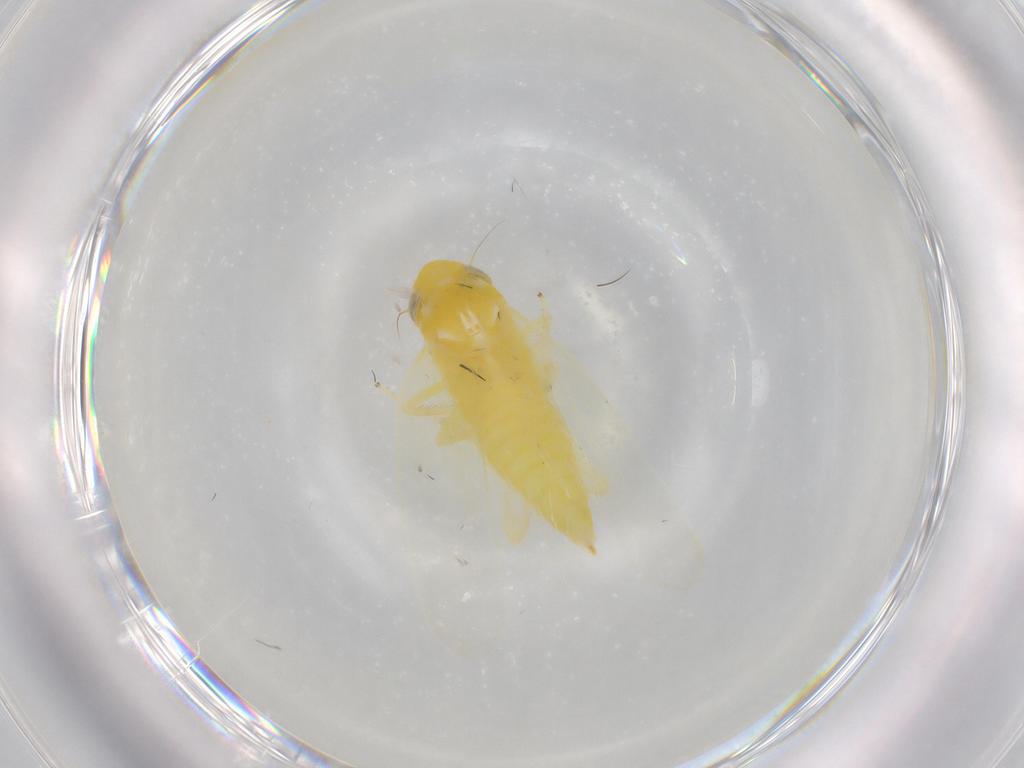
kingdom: Animalia
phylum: Arthropoda
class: Insecta
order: Hemiptera
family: Cicadellidae
